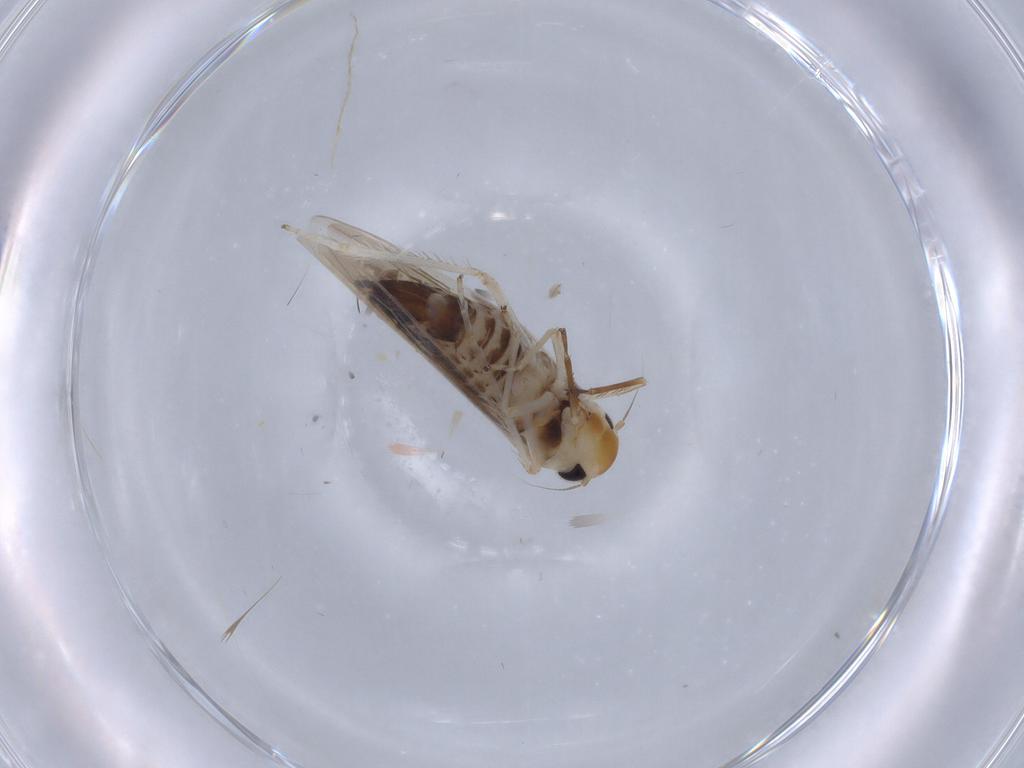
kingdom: Animalia
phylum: Arthropoda
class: Insecta
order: Hemiptera
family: Cicadellidae
